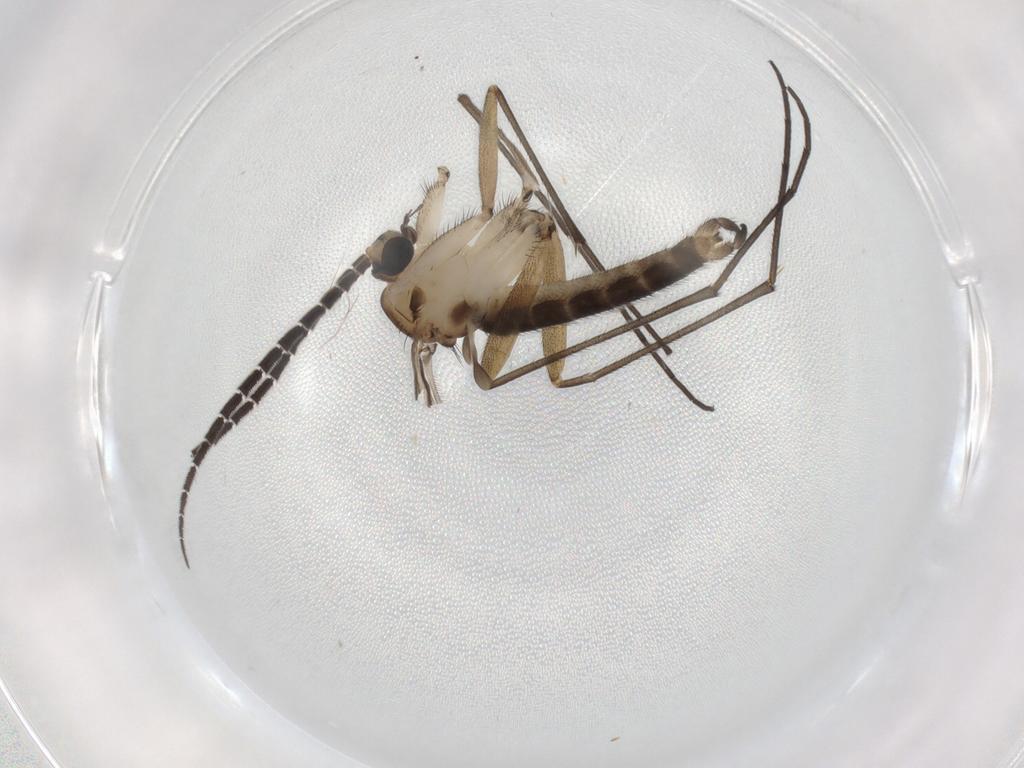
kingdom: Animalia
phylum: Arthropoda
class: Insecta
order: Diptera
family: Sciaridae
